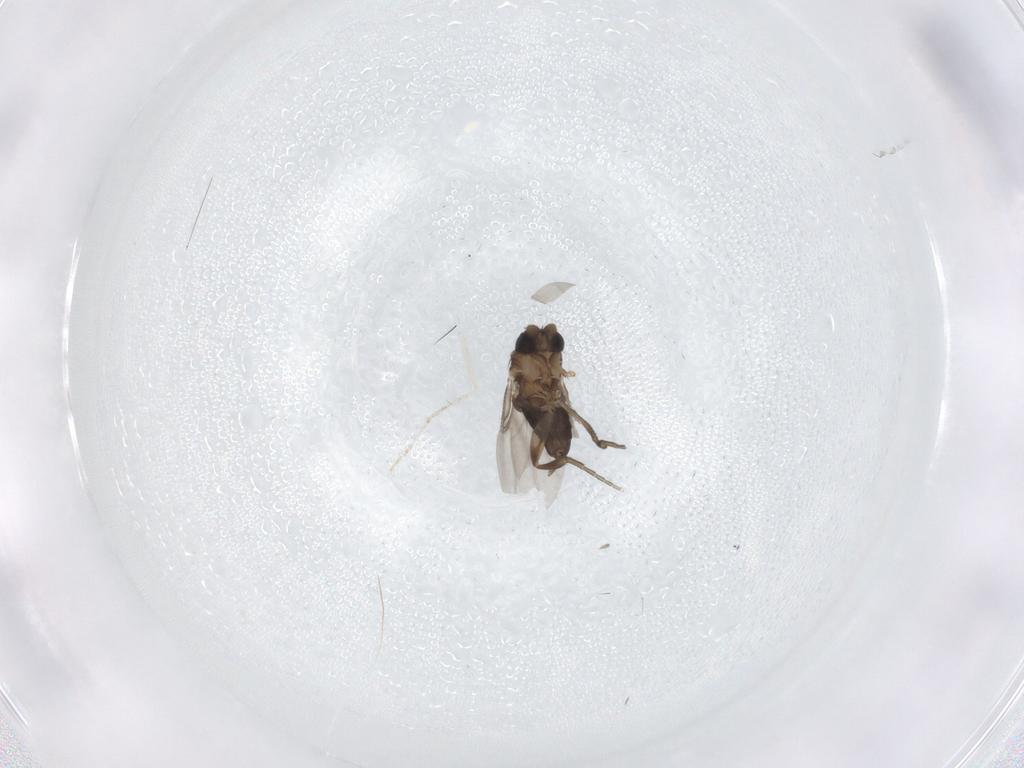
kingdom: Animalia
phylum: Arthropoda
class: Insecta
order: Diptera
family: Phoridae
